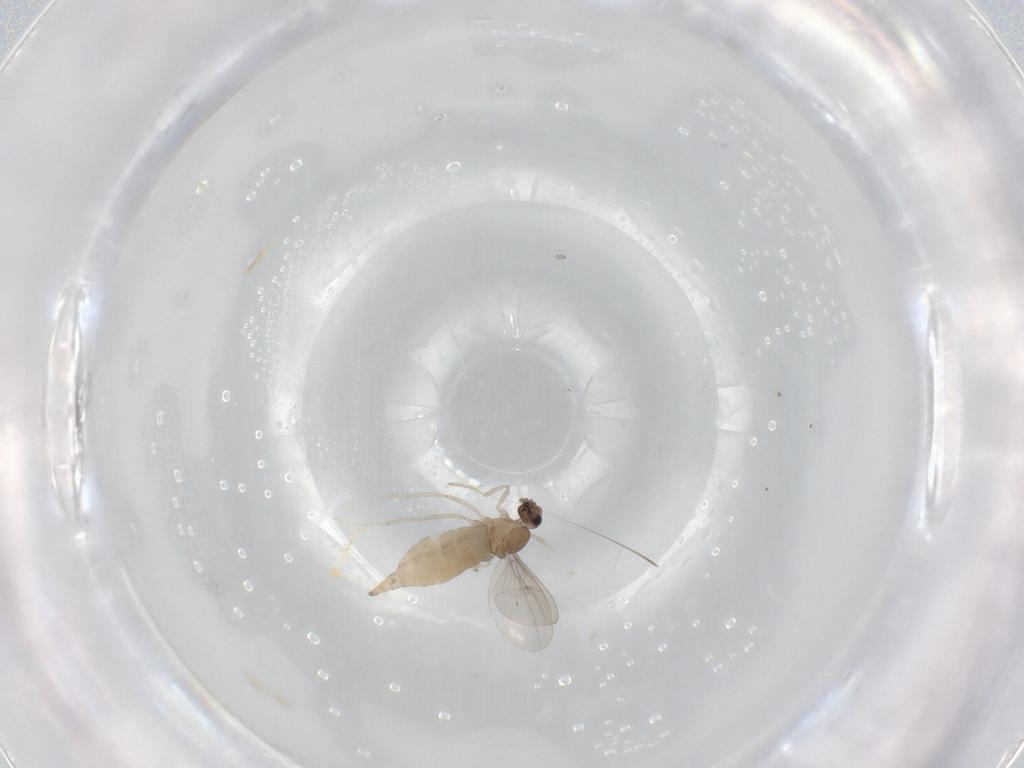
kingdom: Animalia
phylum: Arthropoda
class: Insecta
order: Diptera
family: Cecidomyiidae
